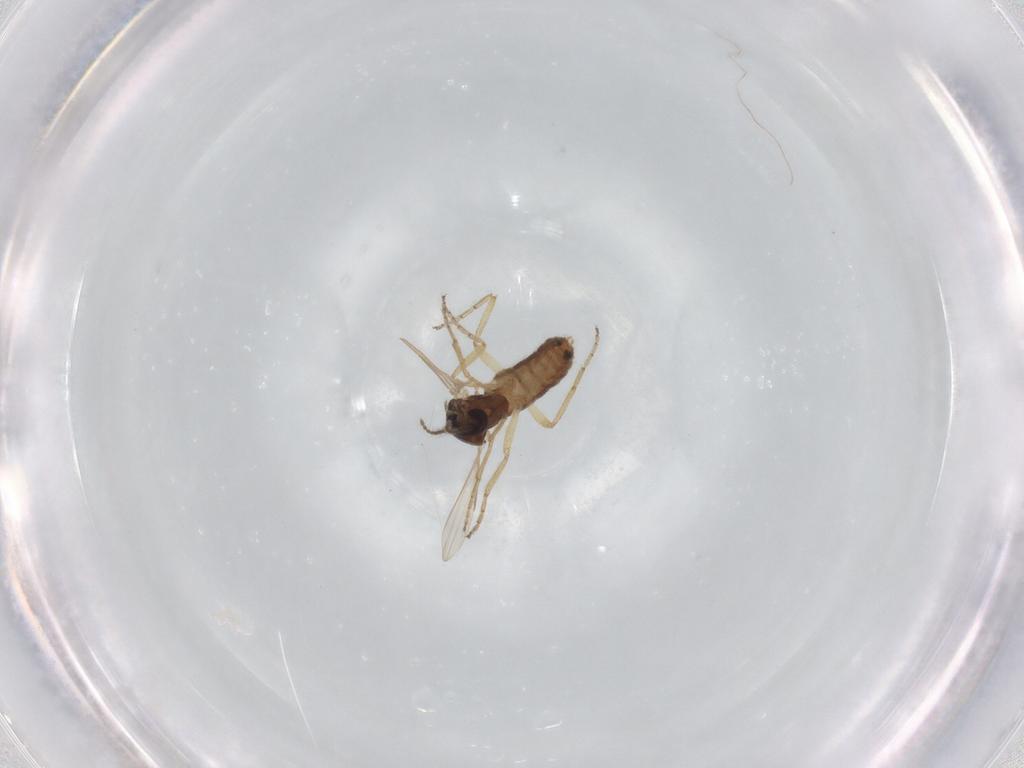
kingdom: Animalia
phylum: Arthropoda
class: Insecta
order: Diptera
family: Ceratopogonidae
